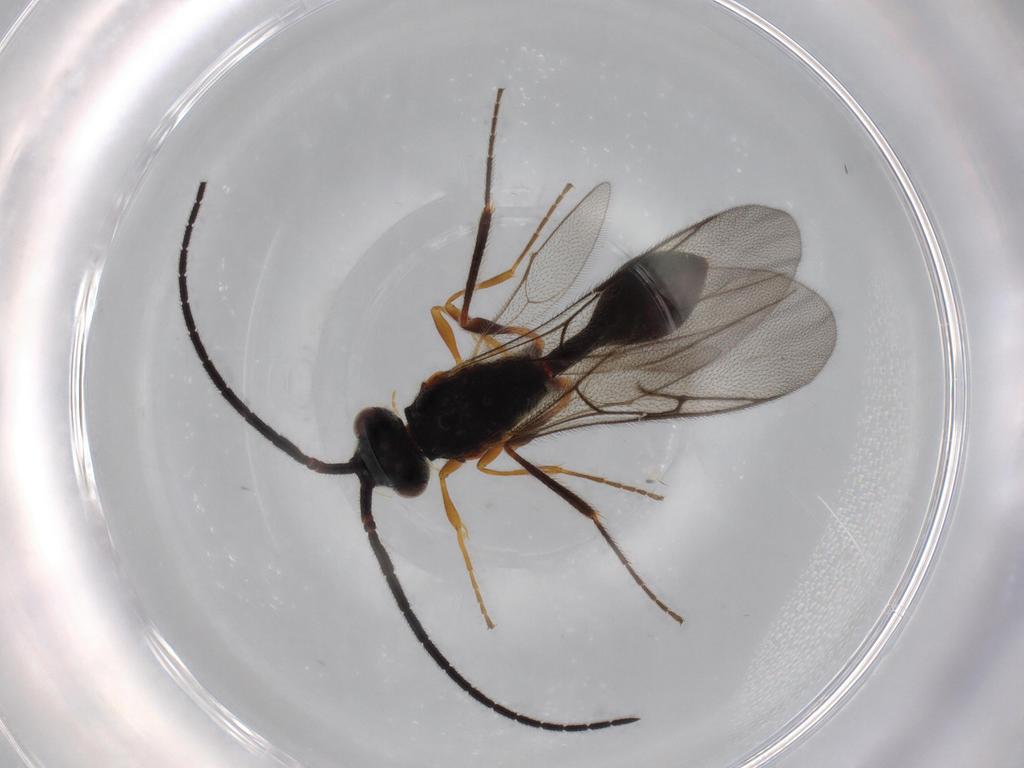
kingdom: Animalia
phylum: Arthropoda
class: Insecta
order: Hymenoptera
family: Diapriidae
